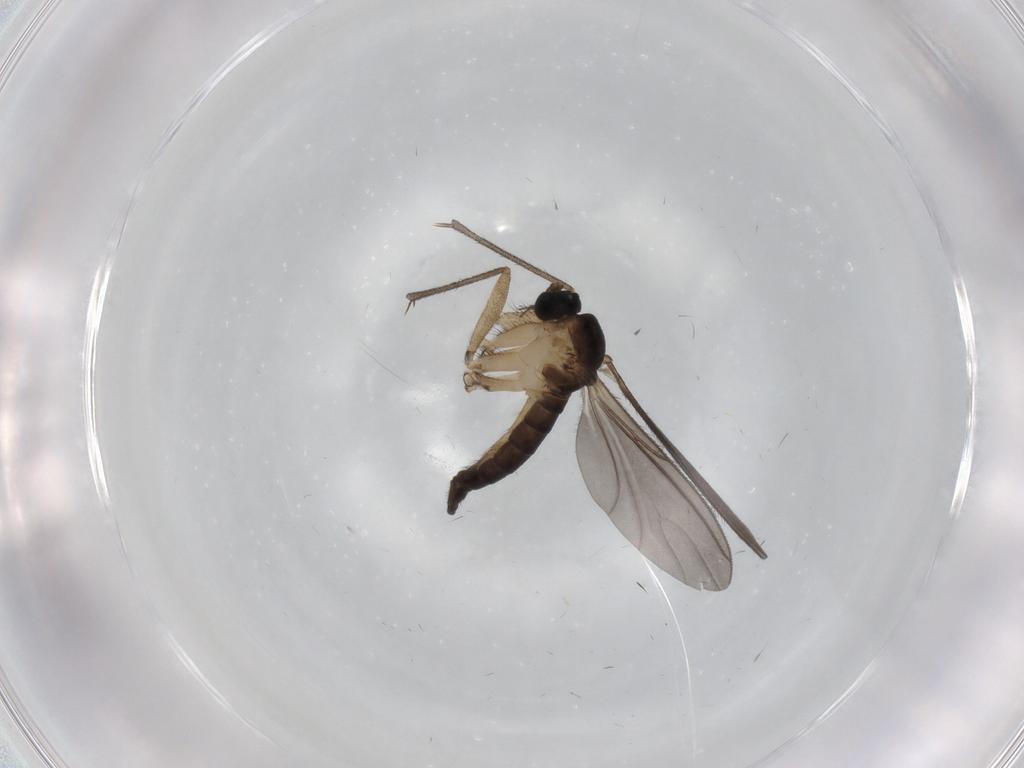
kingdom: Animalia
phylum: Arthropoda
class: Insecta
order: Diptera
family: Sciaridae
